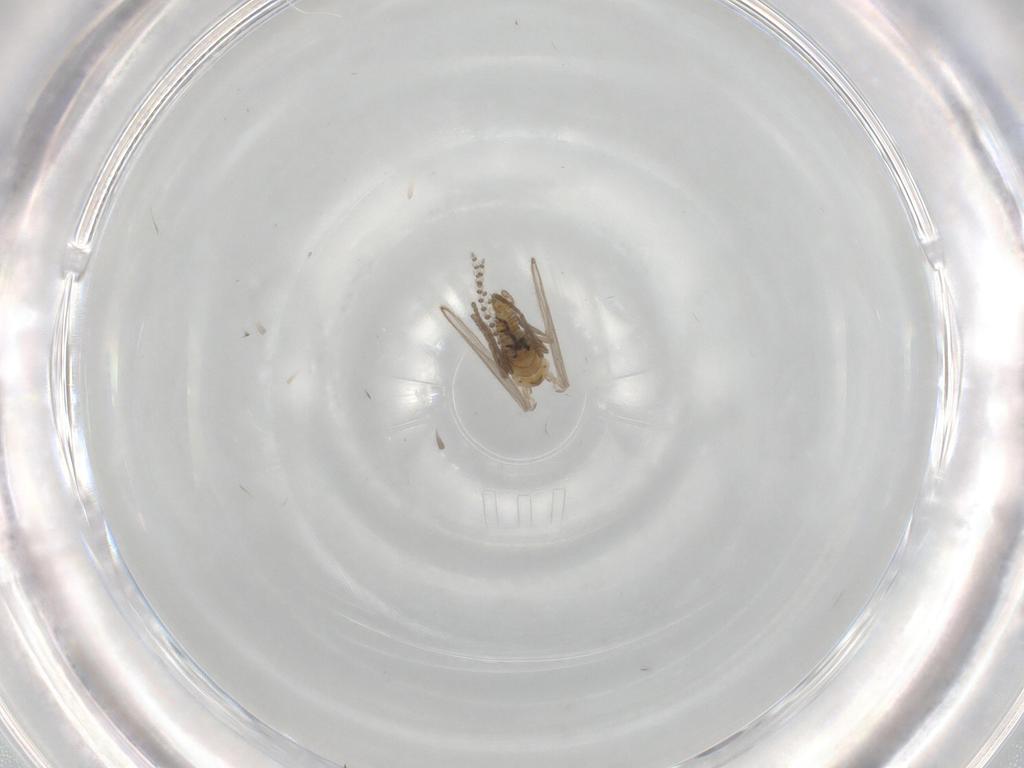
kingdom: Animalia
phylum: Arthropoda
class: Insecta
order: Diptera
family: Psychodidae
